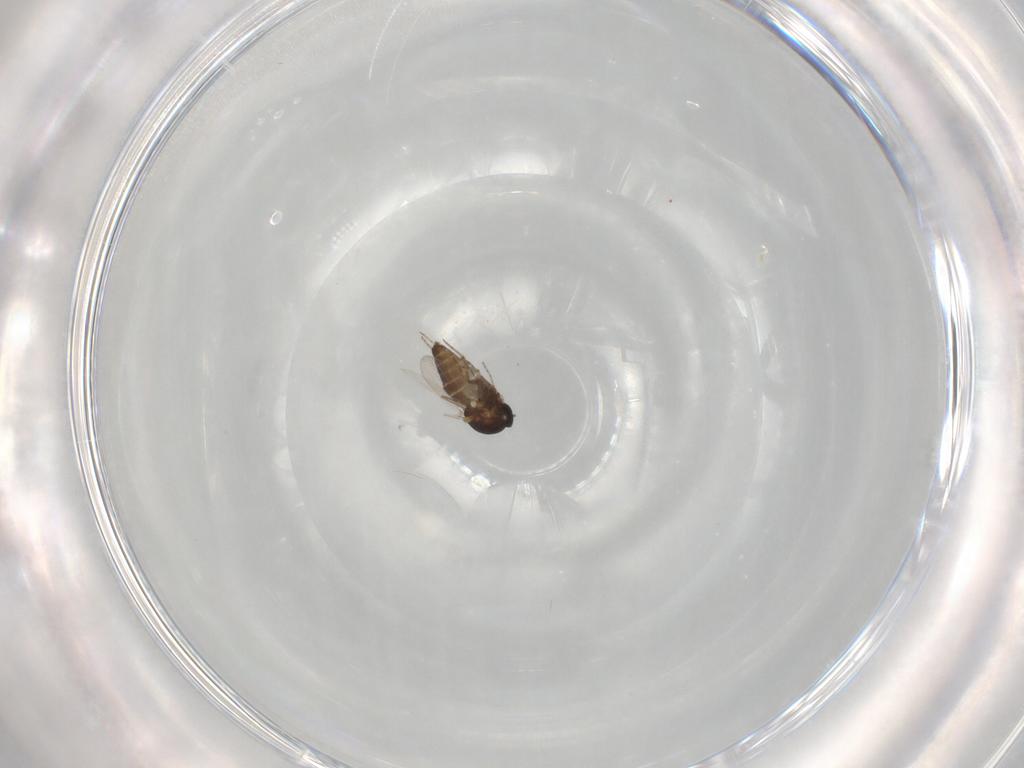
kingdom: Animalia
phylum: Arthropoda
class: Insecta
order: Diptera
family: Ceratopogonidae
